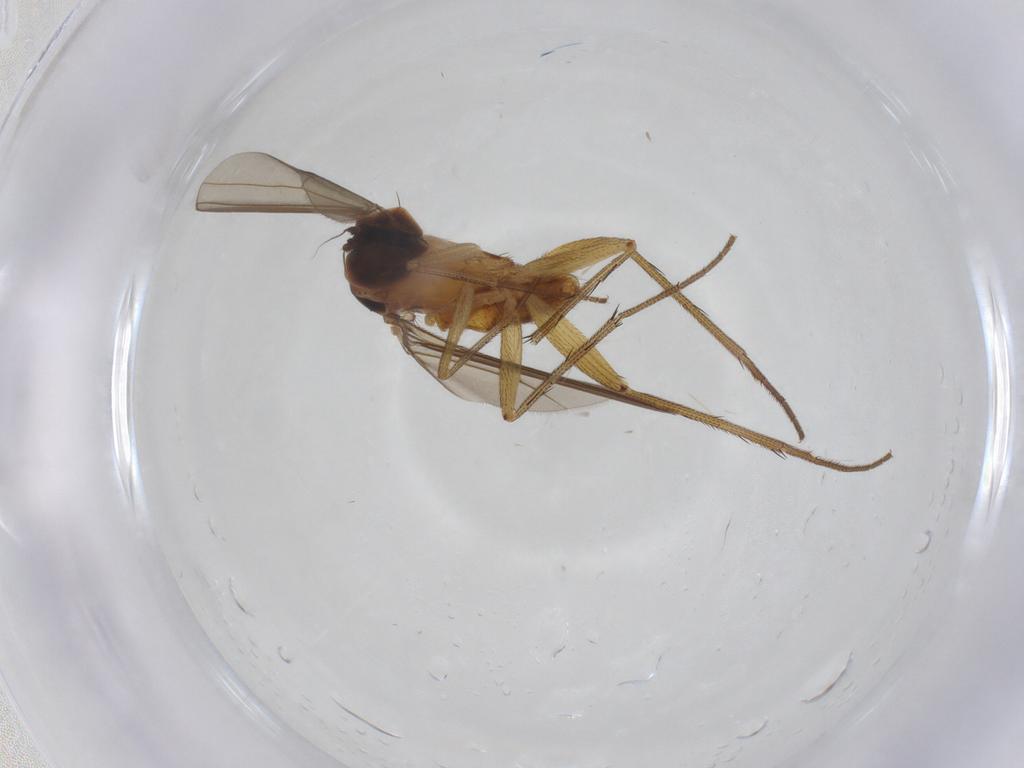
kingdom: Animalia
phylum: Arthropoda
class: Insecta
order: Diptera
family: Dolichopodidae
